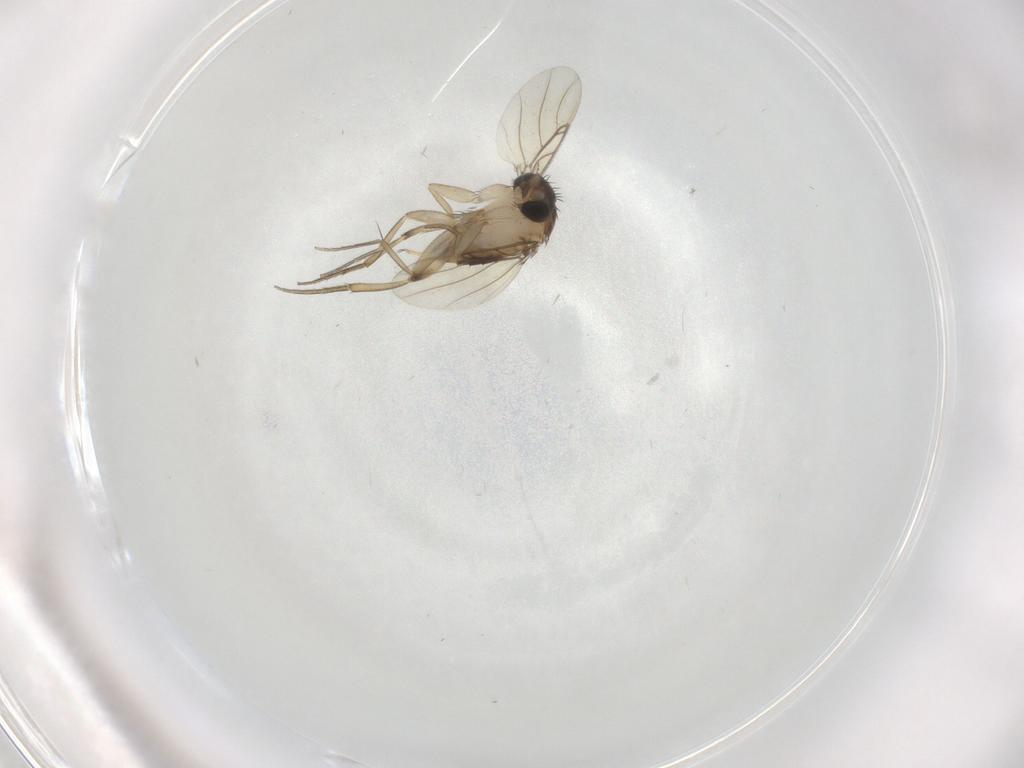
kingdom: Animalia
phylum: Arthropoda
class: Insecta
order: Diptera
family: Phoridae
